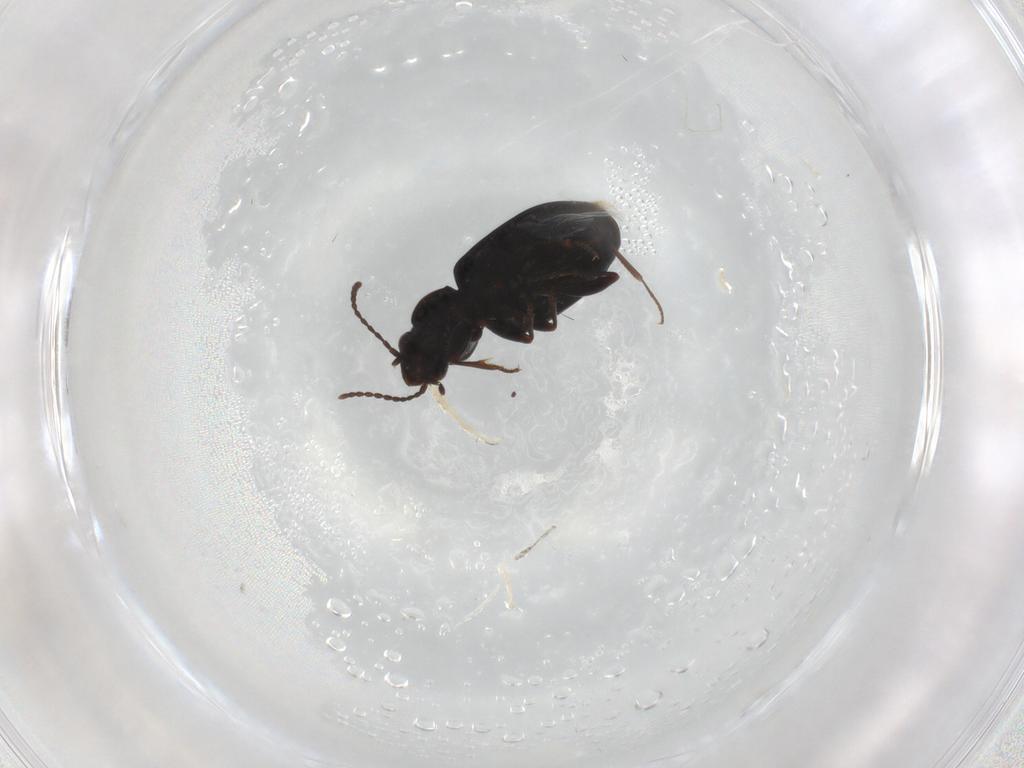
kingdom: Animalia
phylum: Arthropoda
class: Insecta
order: Coleoptera
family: Carabidae
